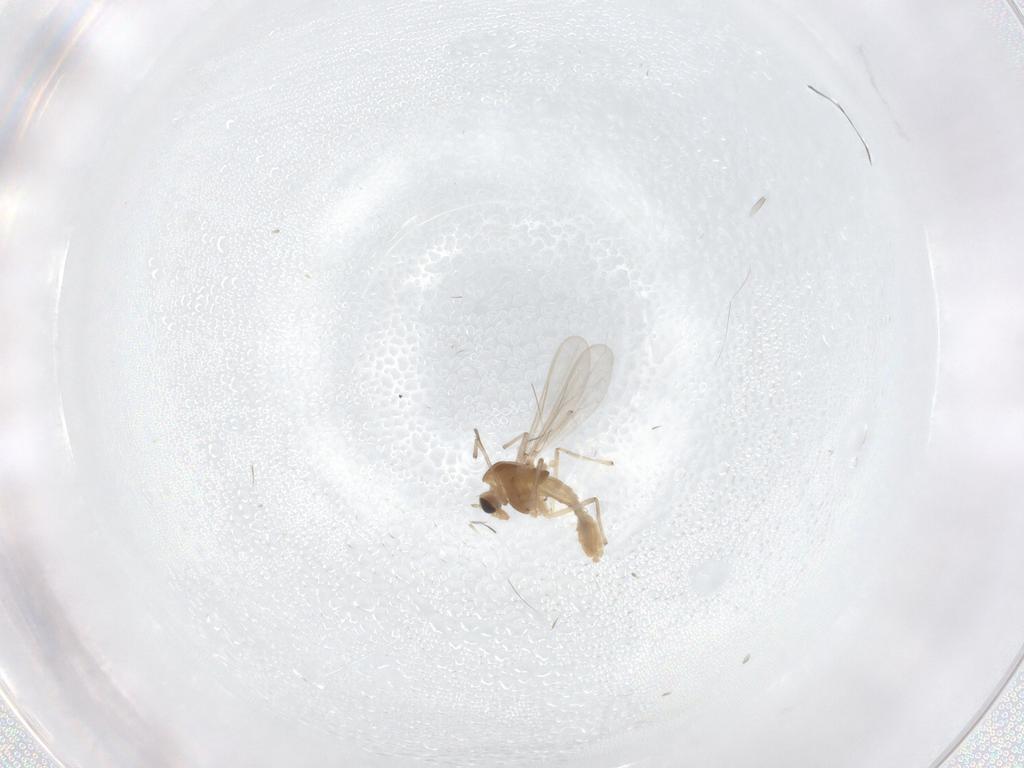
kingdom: Animalia
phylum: Arthropoda
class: Insecta
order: Diptera
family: Chironomidae
